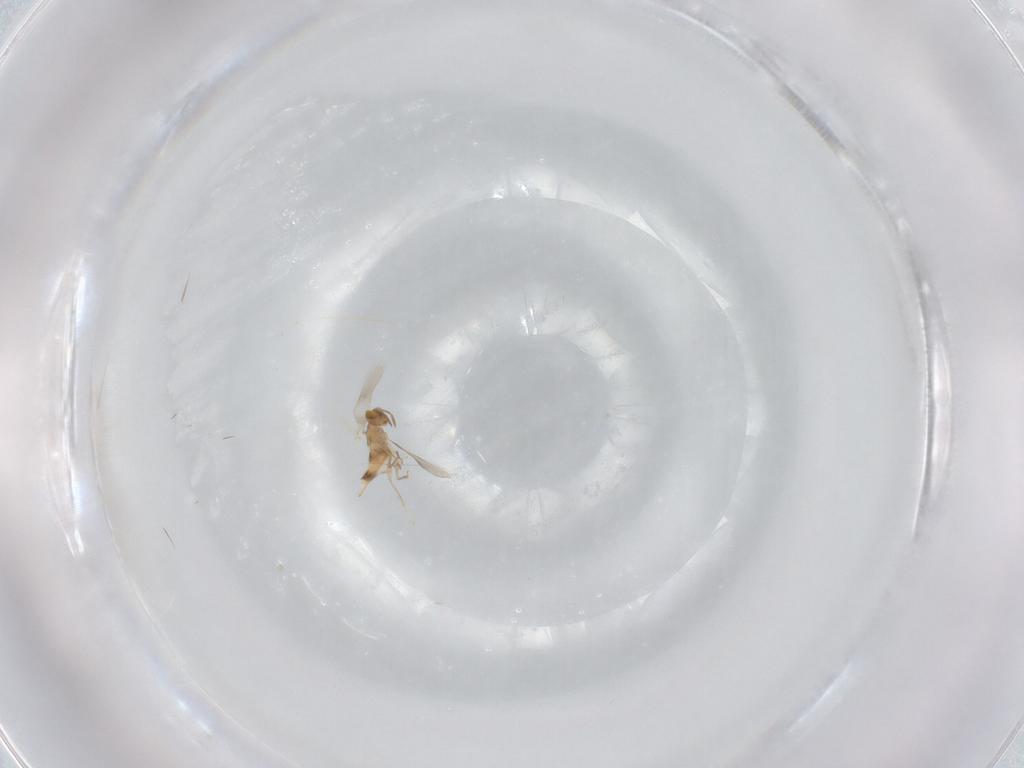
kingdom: Animalia
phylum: Arthropoda
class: Insecta
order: Hymenoptera
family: Aphelinidae
